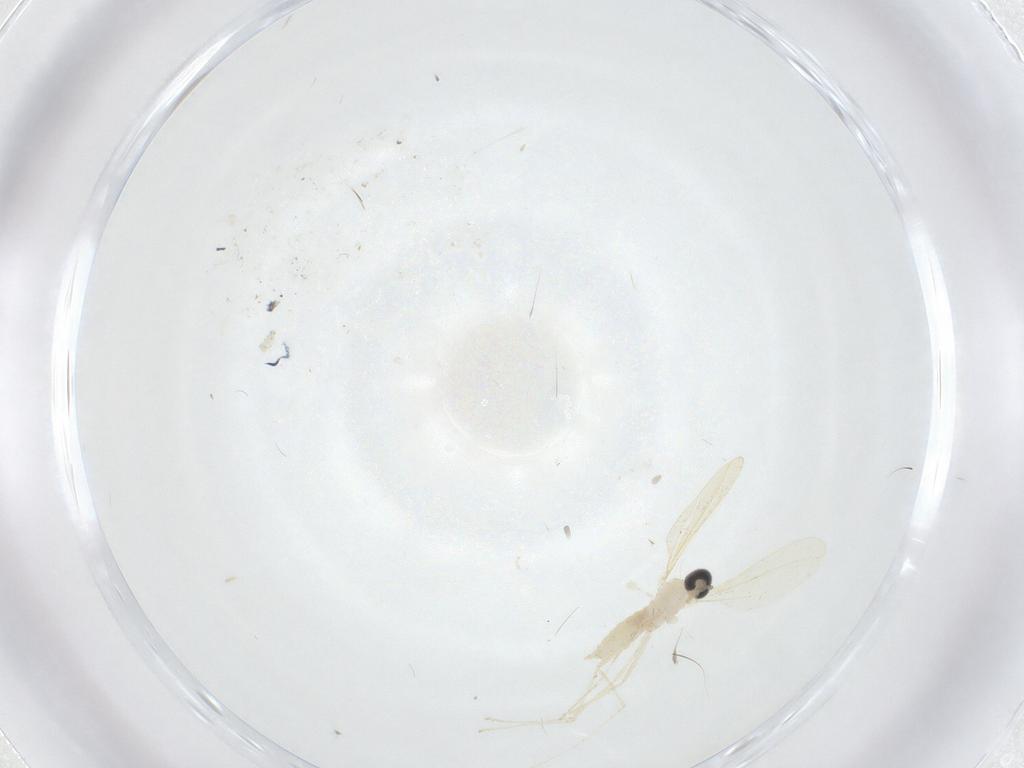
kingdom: Animalia
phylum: Arthropoda
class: Insecta
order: Diptera
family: Cecidomyiidae
